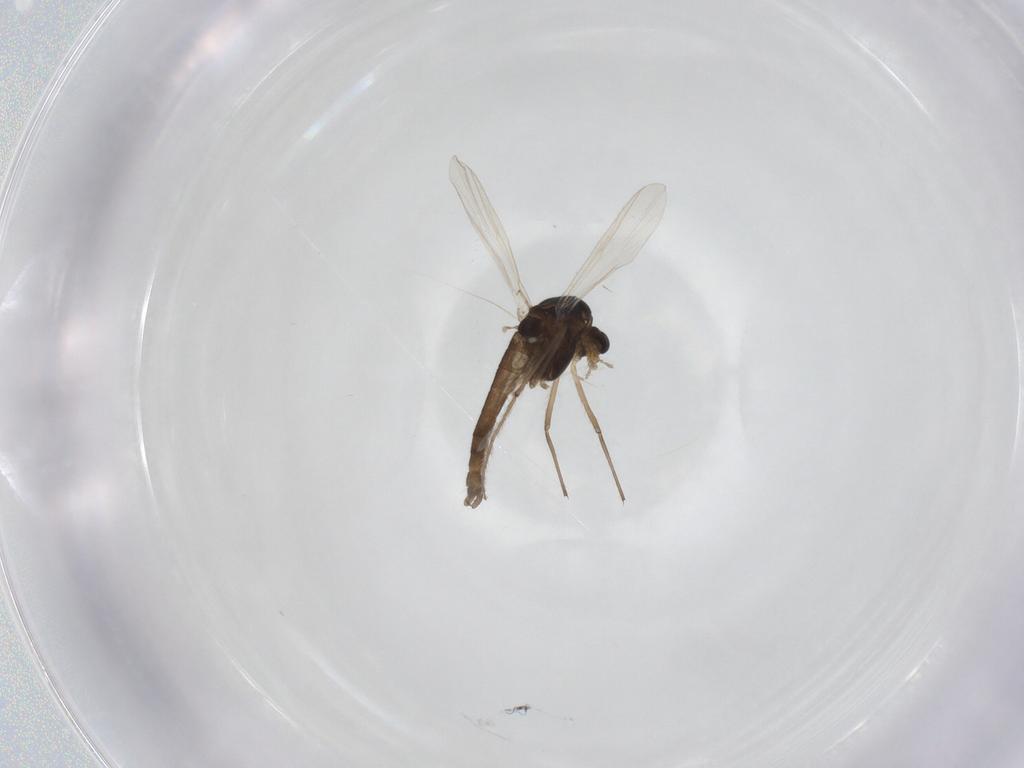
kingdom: Animalia
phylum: Arthropoda
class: Insecta
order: Diptera
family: Chironomidae
